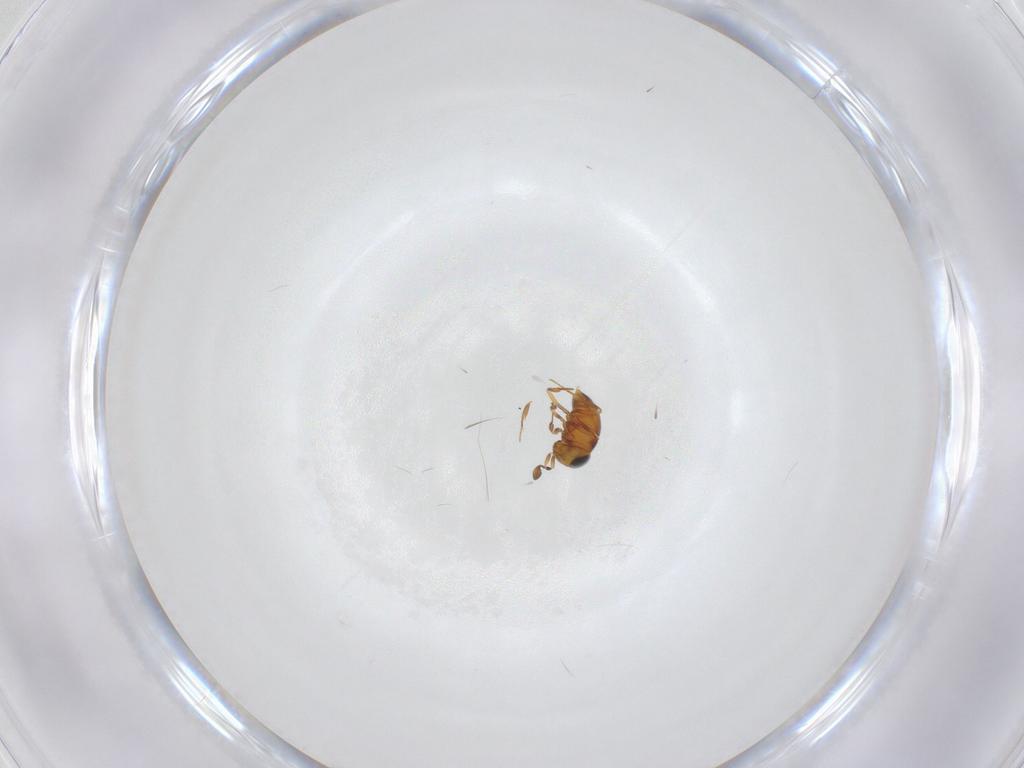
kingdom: Animalia
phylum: Arthropoda
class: Insecta
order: Hymenoptera
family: Scelionidae
